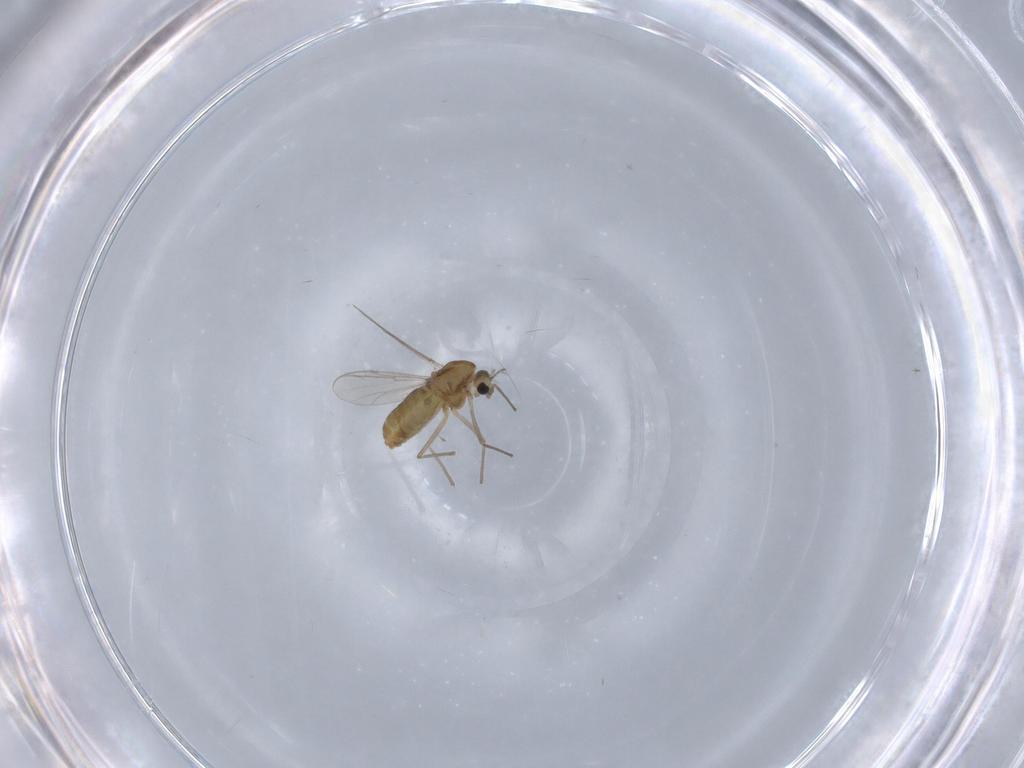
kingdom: Animalia
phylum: Arthropoda
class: Insecta
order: Diptera
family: Chironomidae
